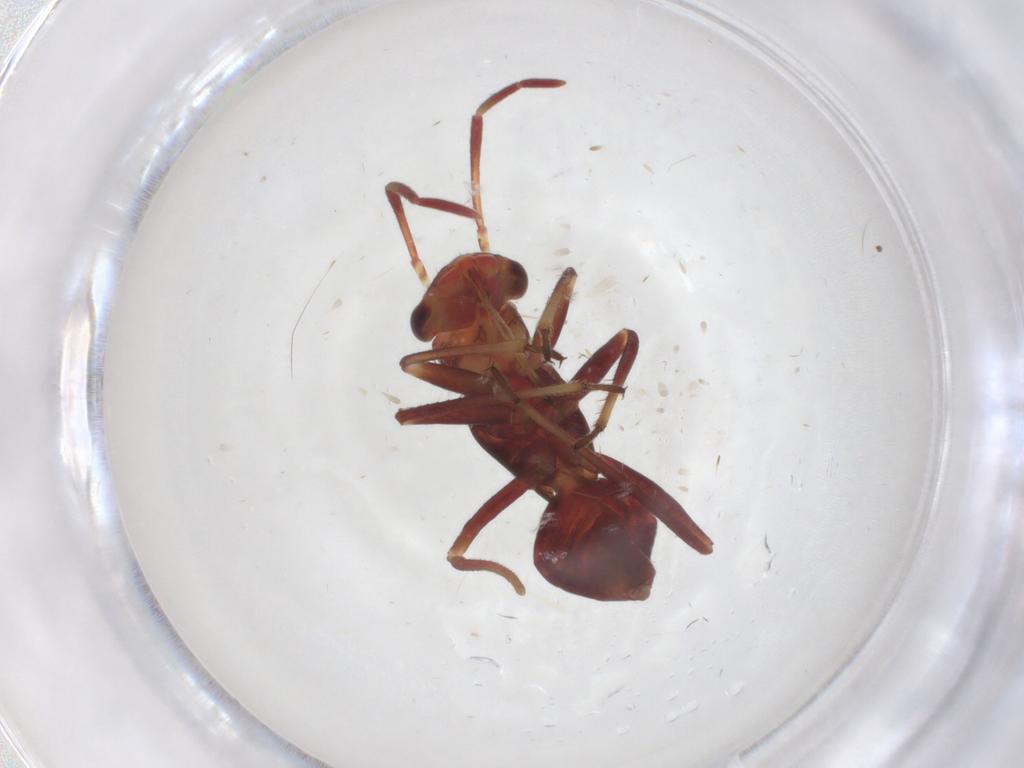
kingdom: Animalia
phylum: Arthropoda
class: Insecta
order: Hemiptera
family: Miridae
